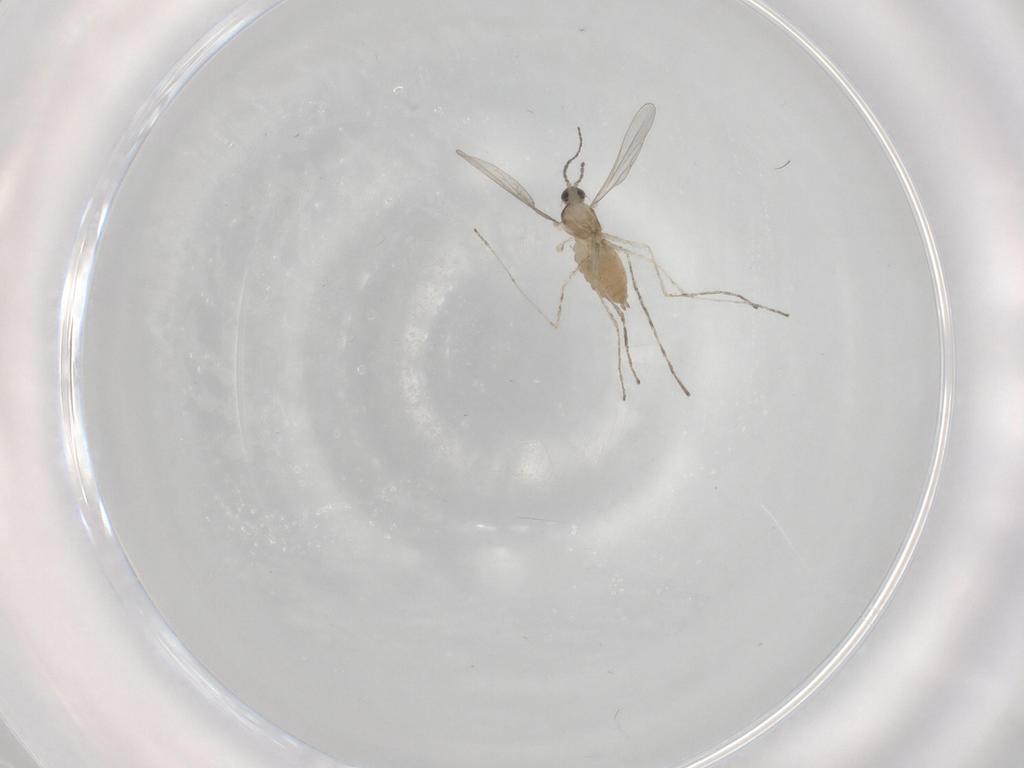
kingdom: Animalia
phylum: Arthropoda
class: Insecta
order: Diptera
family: Cecidomyiidae
